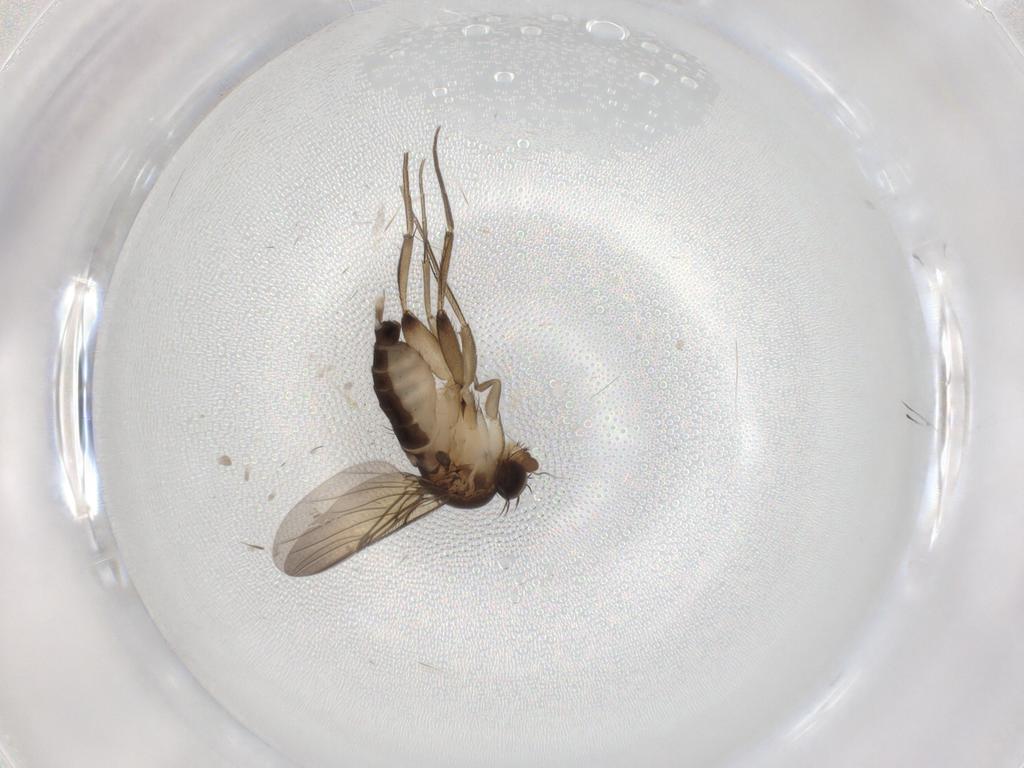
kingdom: Animalia
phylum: Arthropoda
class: Insecta
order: Diptera
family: Phoridae
